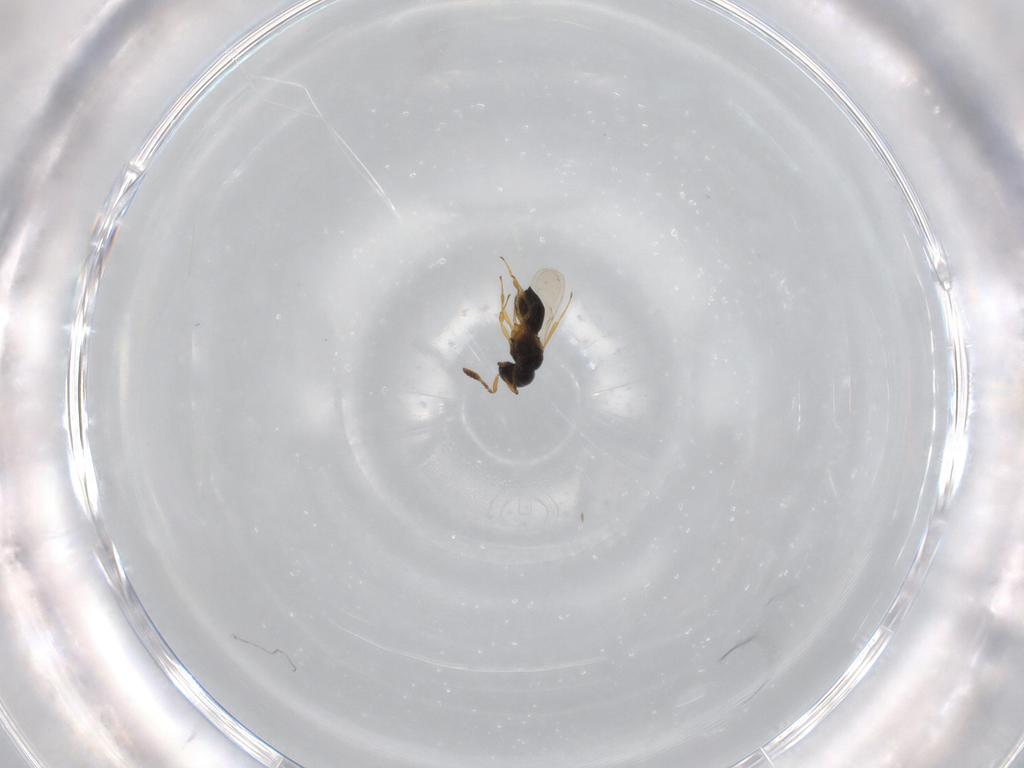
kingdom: Animalia
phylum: Arthropoda
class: Insecta
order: Hymenoptera
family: Scelionidae
